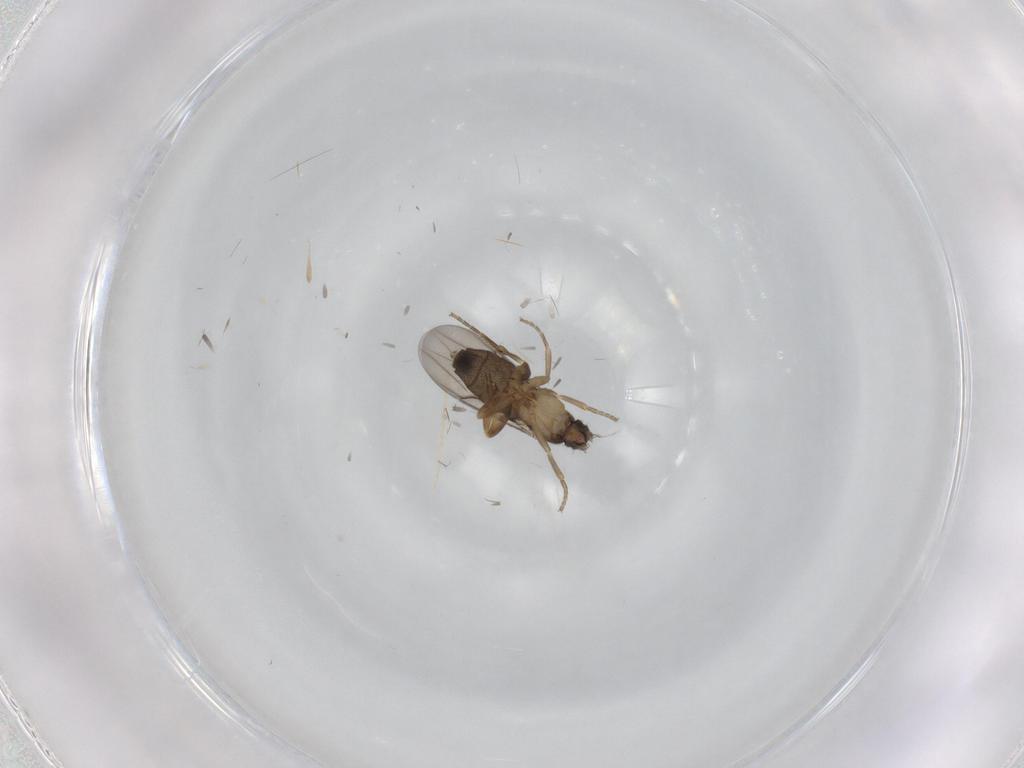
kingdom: Animalia
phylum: Arthropoda
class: Insecta
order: Diptera
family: Phoridae
